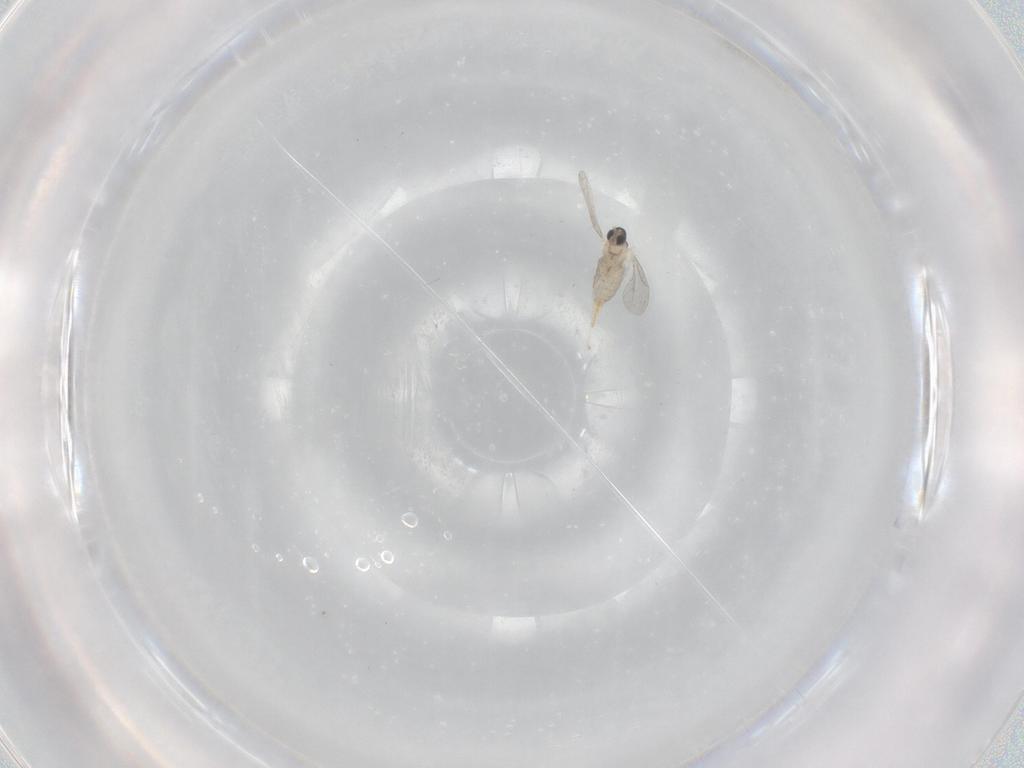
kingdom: Animalia
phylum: Arthropoda
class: Insecta
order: Diptera
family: Cecidomyiidae
